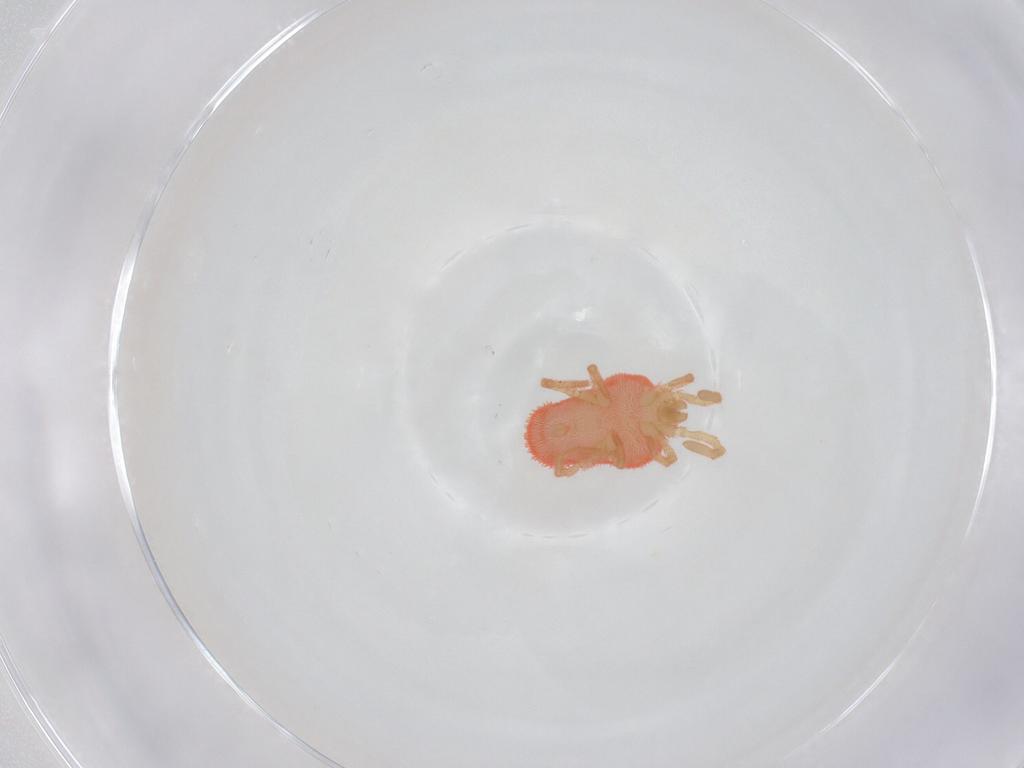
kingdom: Animalia
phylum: Arthropoda
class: Arachnida
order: Trombidiformes
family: Trombidiidae
